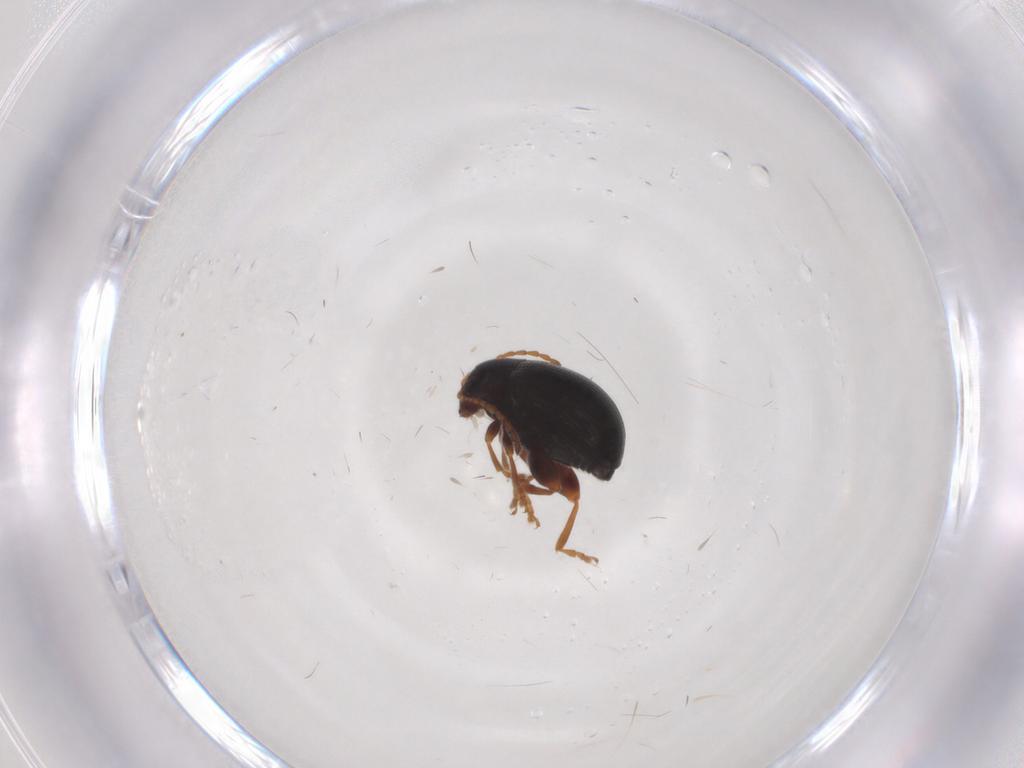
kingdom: Animalia
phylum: Arthropoda
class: Insecta
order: Coleoptera
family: Chrysomelidae
